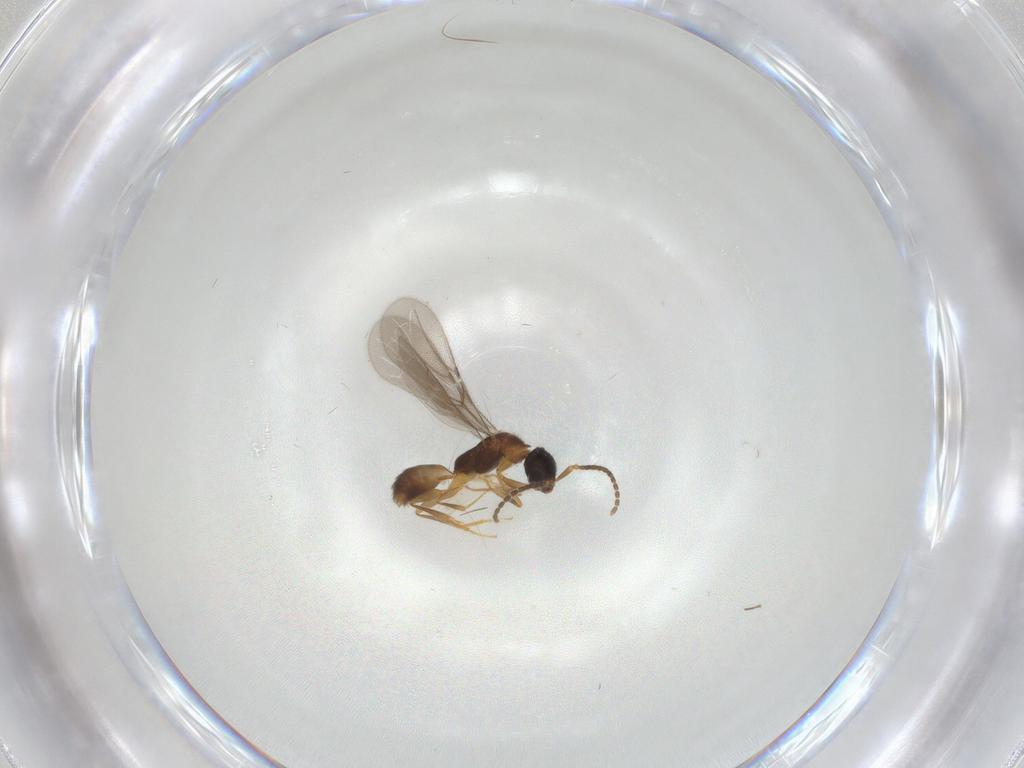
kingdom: Animalia
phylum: Arthropoda
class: Insecta
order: Hymenoptera
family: Bethylidae
